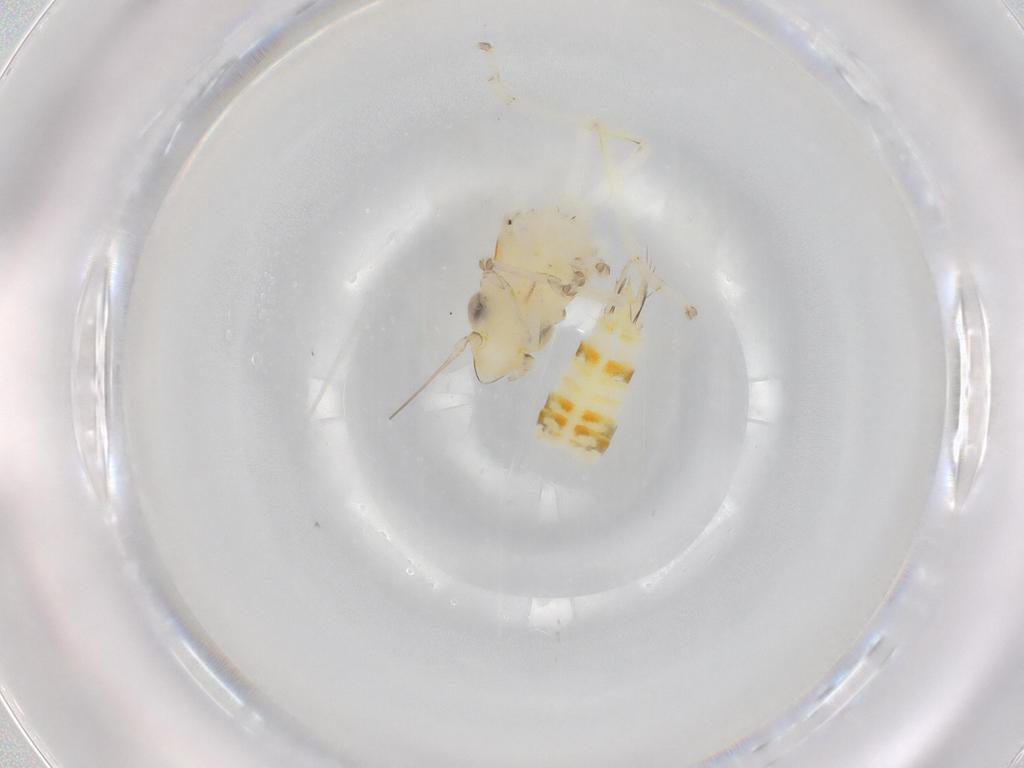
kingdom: Animalia
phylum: Arthropoda
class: Insecta
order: Hemiptera
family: Cicadellidae
